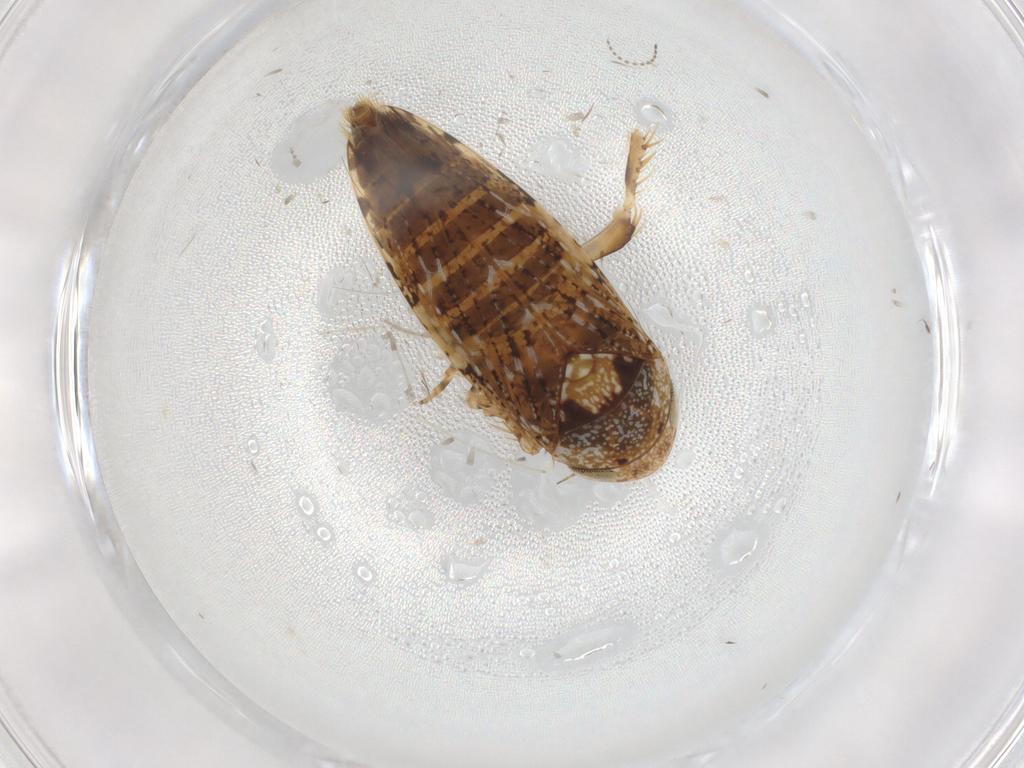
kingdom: Animalia
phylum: Arthropoda
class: Insecta
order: Hemiptera
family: Cicadellidae
